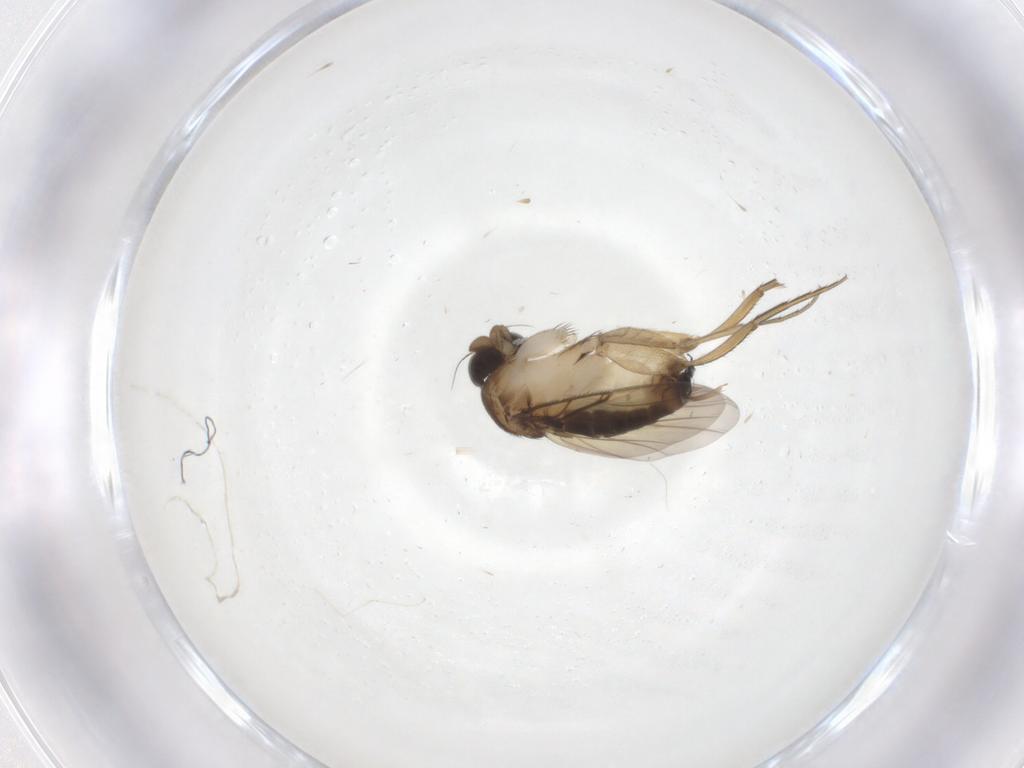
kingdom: Animalia
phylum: Arthropoda
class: Insecta
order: Diptera
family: Phoridae
